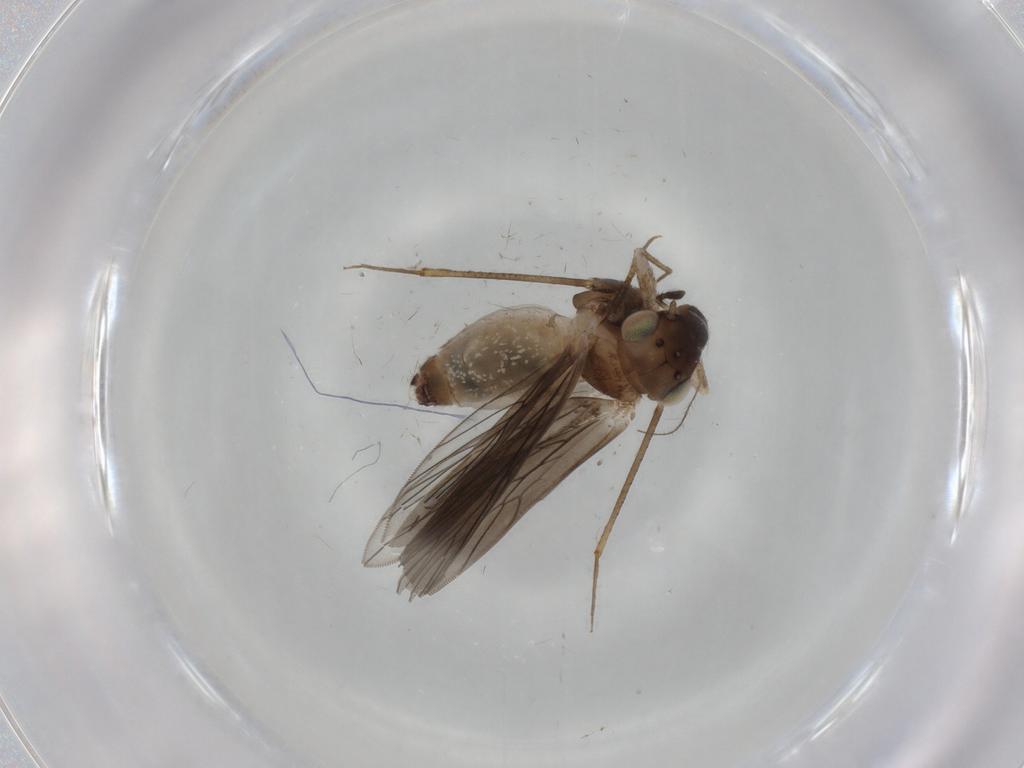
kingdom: Animalia
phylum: Arthropoda
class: Insecta
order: Psocodea
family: Lepidopsocidae
